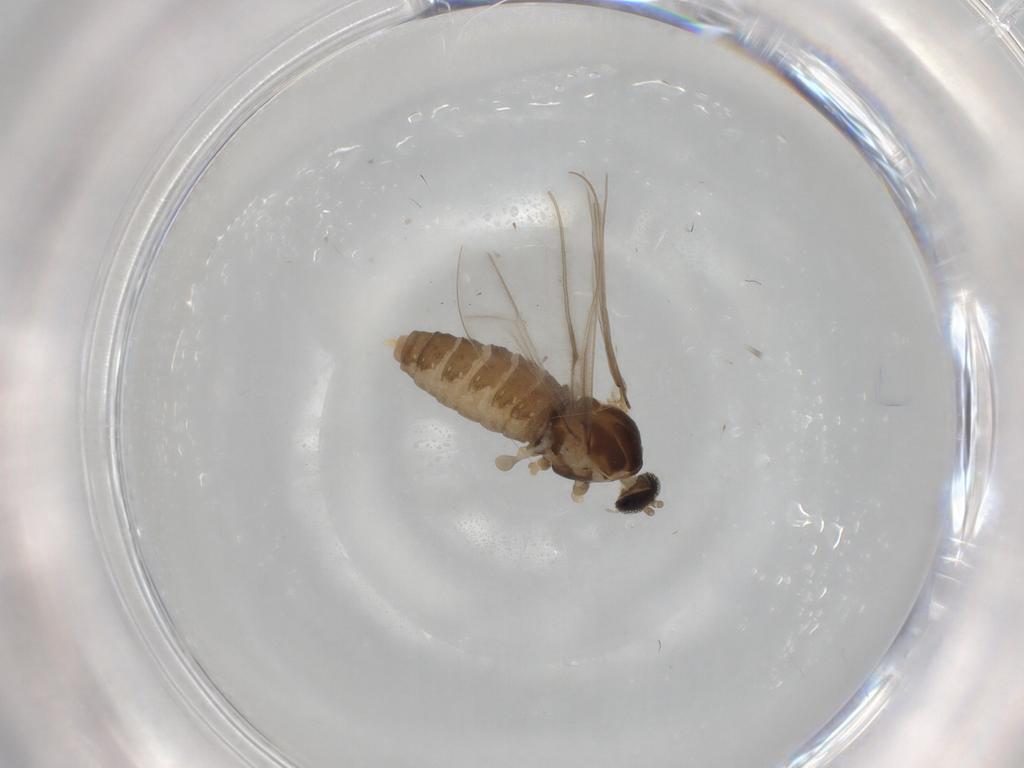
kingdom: Animalia
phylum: Arthropoda
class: Insecta
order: Diptera
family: Cecidomyiidae
